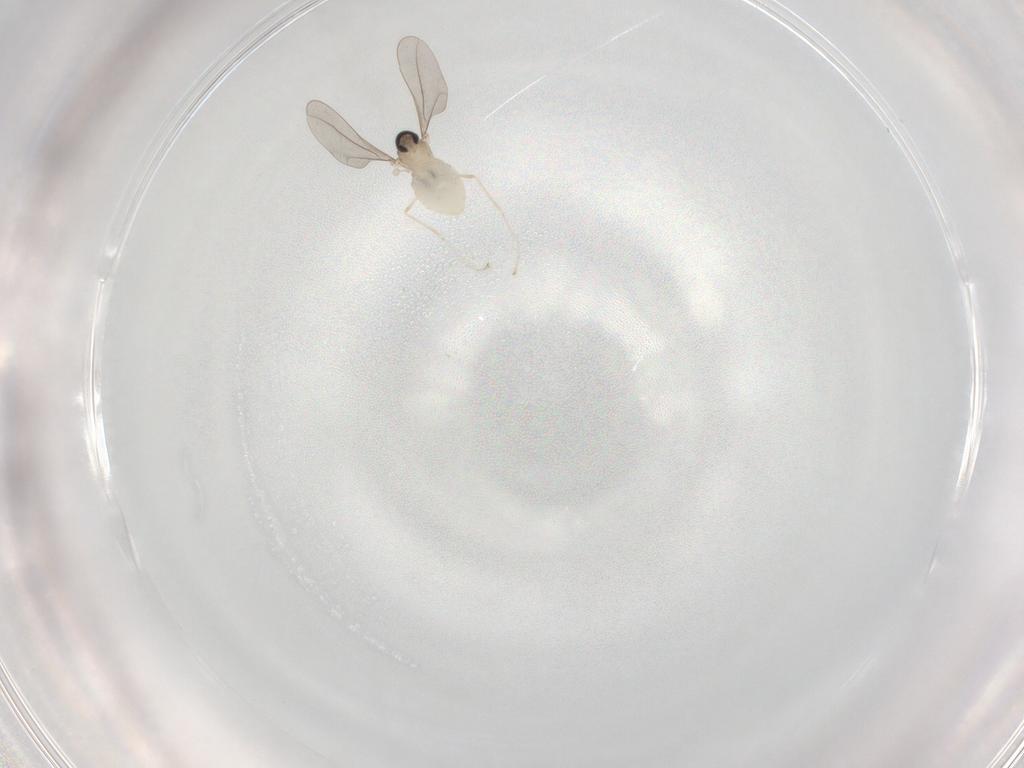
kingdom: Animalia
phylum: Arthropoda
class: Insecta
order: Diptera
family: Cecidomyiidae
